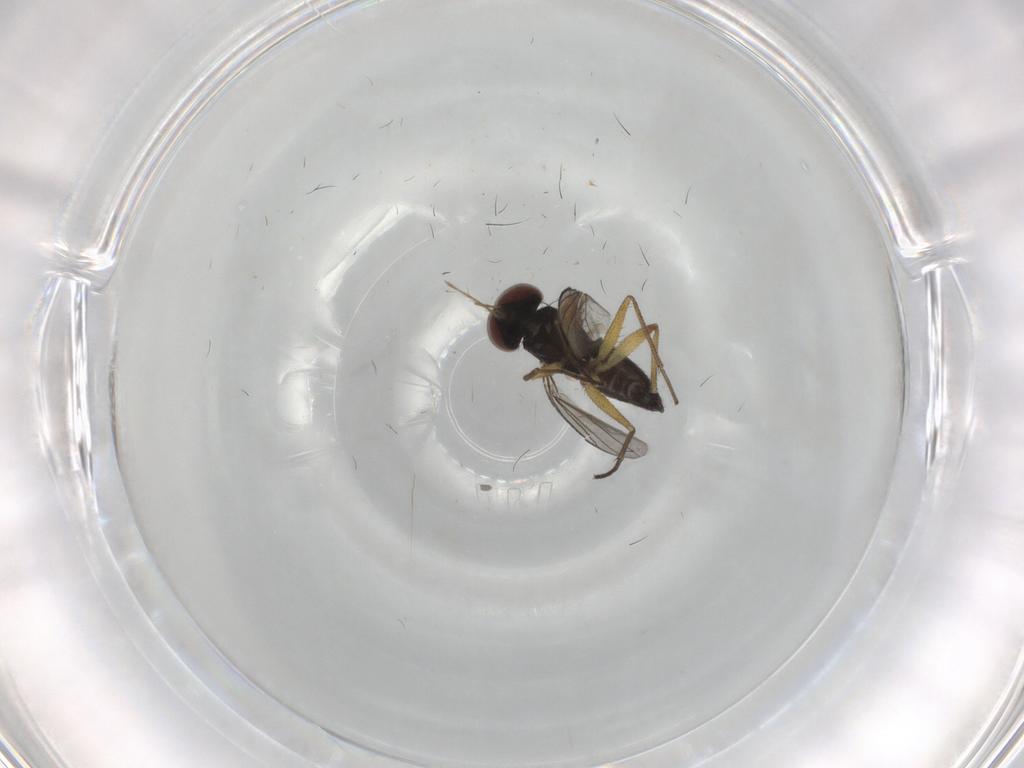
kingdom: Animalia
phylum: Arthropoda
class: Insecta
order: Diptera
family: Dolichopodidae
